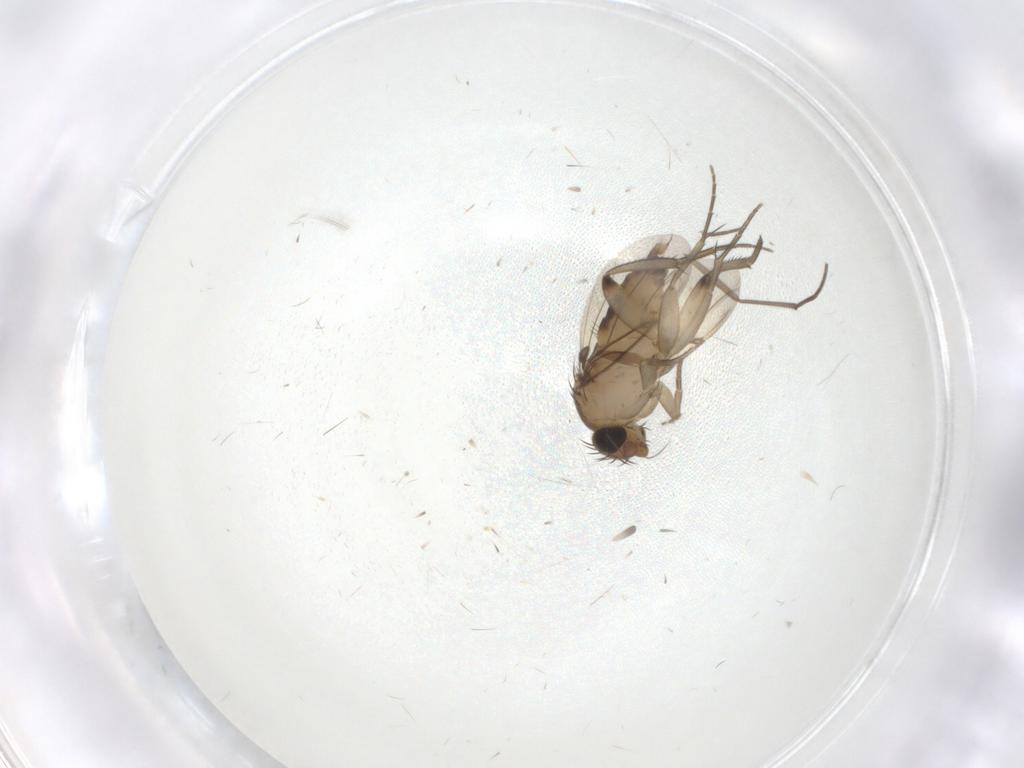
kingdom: Animalia
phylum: Arthropoda
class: Insecta
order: Diptera
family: Phoridae
